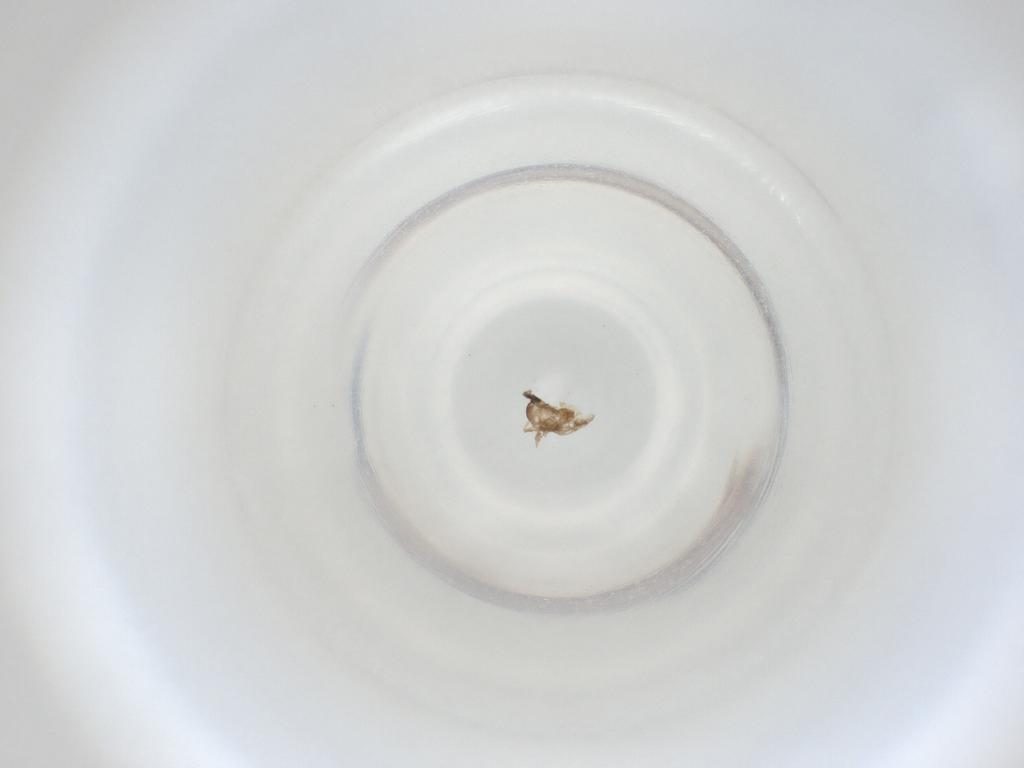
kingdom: Animalia
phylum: Arthropoda
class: Insecta
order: Diptera
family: Cecidomyiidae
